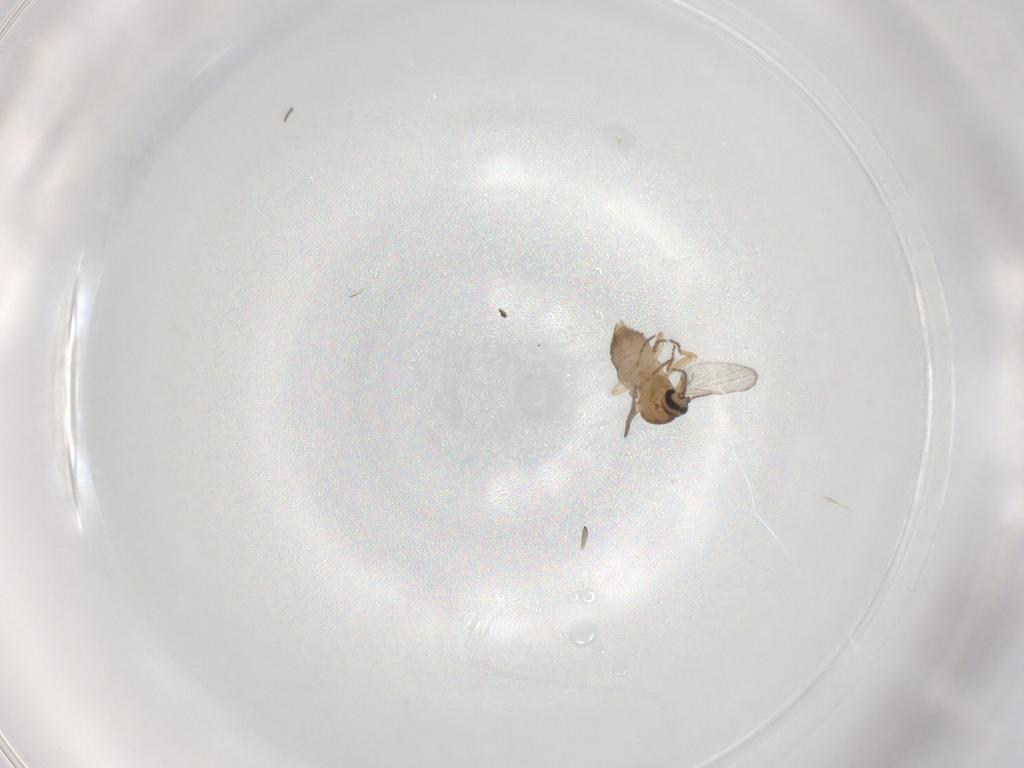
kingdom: Animalia
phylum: Arthropoda
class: Insecta
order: Diptera
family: Ceratopogonidae
